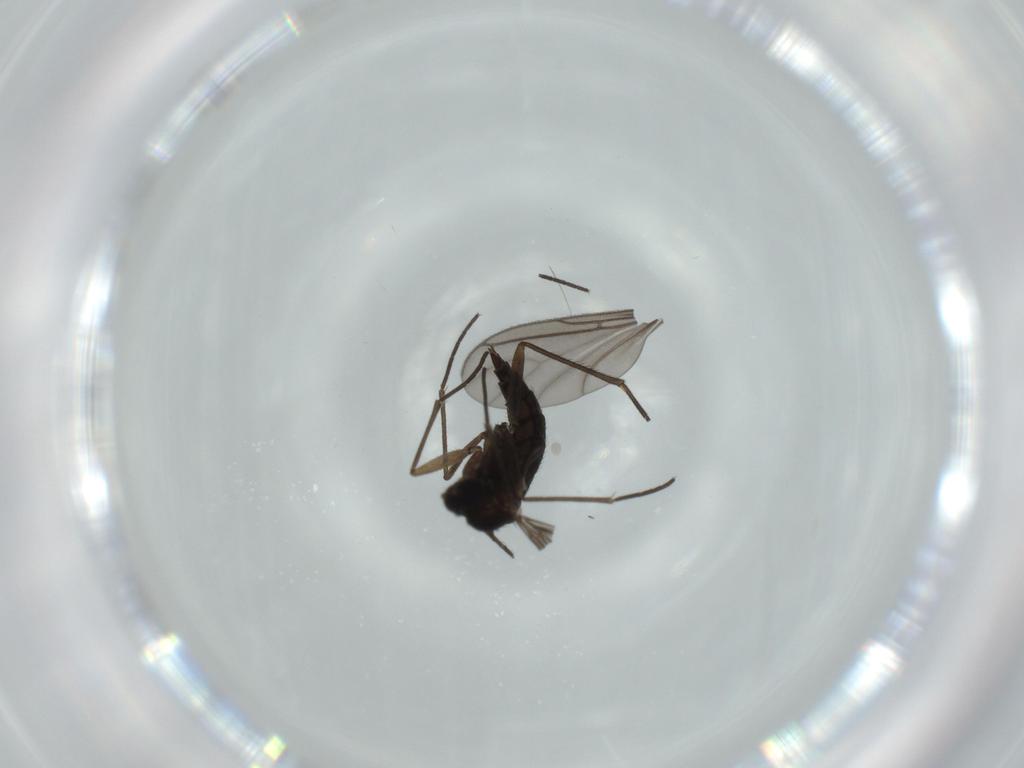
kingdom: Animalia
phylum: Arthropoda
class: Insecta
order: Diptera
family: Sciaridae
